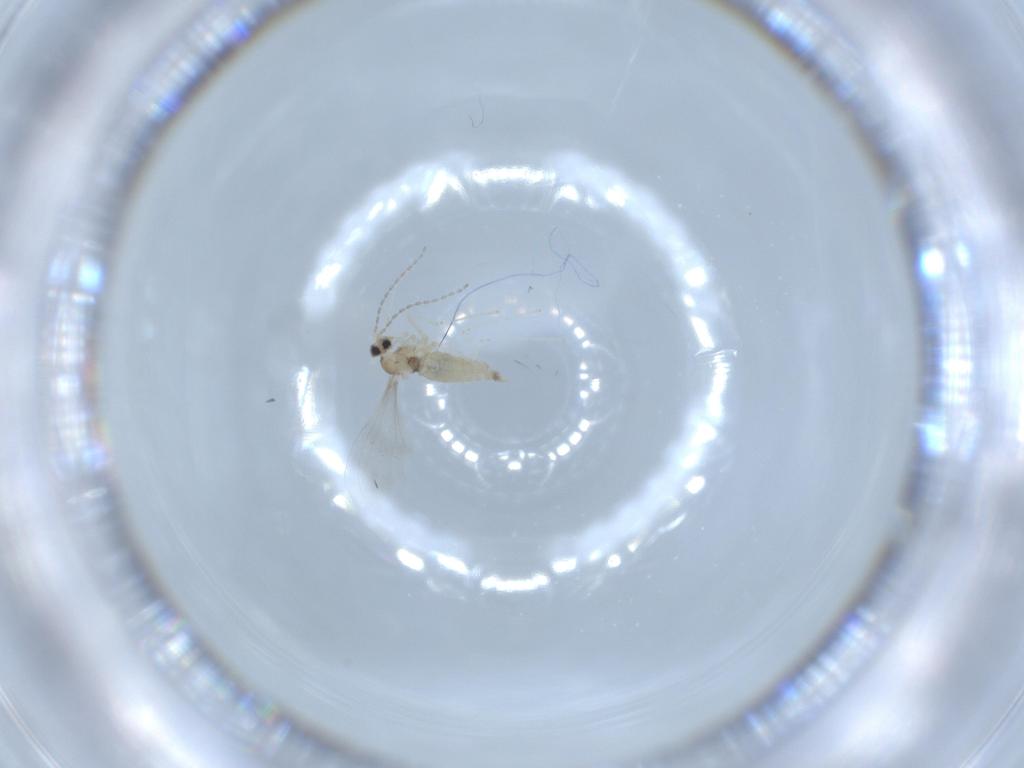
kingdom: Animalia
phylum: Arthropoda
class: Insecta
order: Diptera
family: Cecidomyiidae
